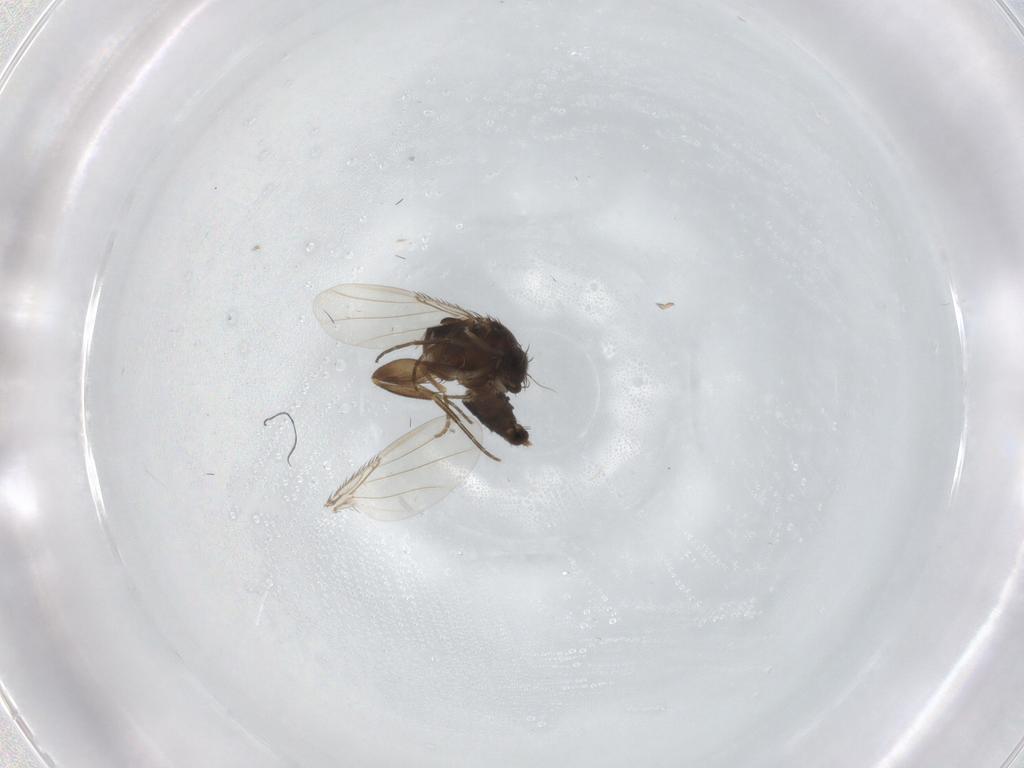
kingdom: Animalia
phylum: Arthropoda
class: Insecta
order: Diptera
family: Phoridae
